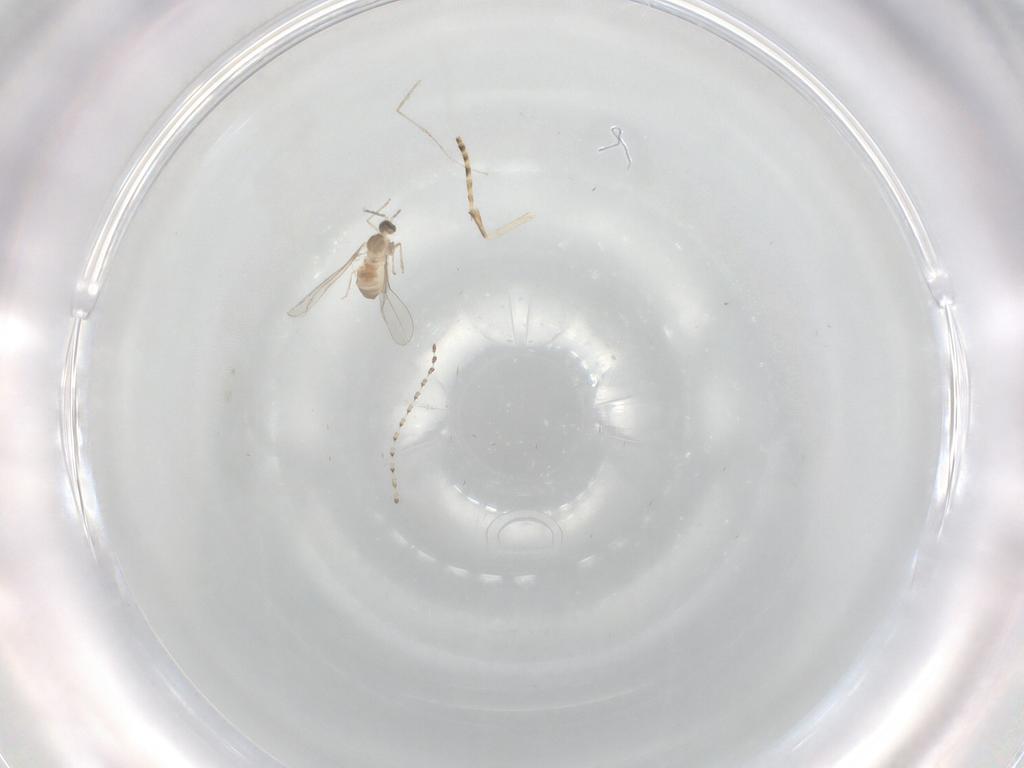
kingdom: Animalia
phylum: Arthropoda
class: Insecta
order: Diptera
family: Cecidomyiidae
